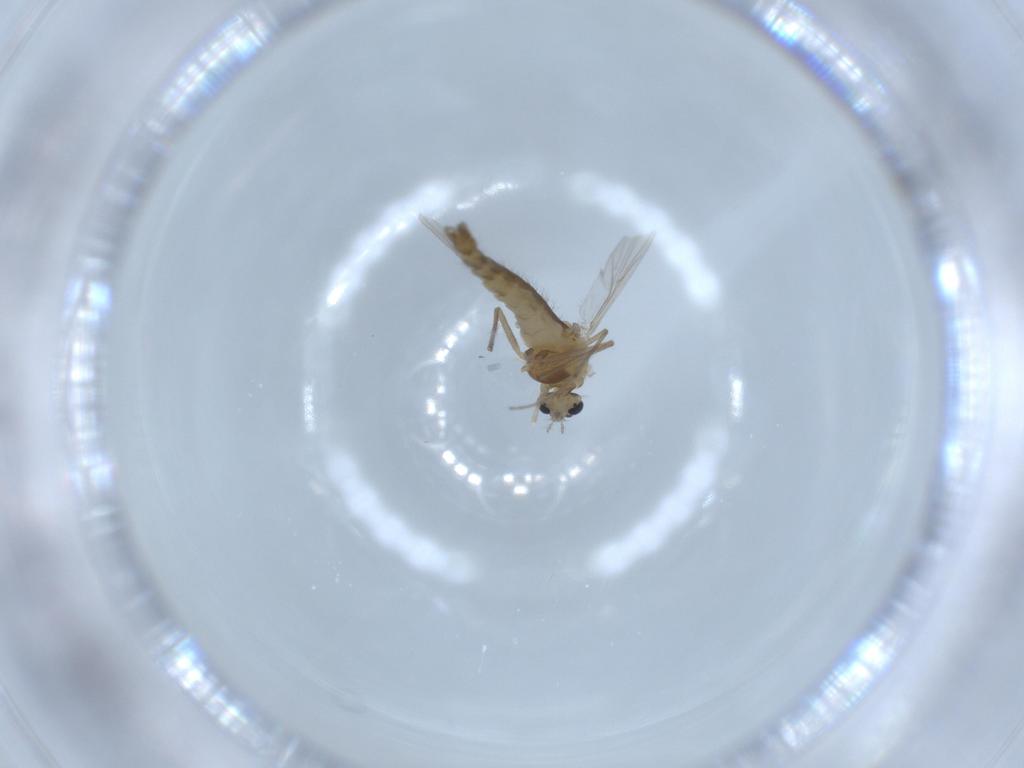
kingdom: Animalia
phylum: Arthropoda
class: Insecta
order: Diptera
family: Chironomidae
